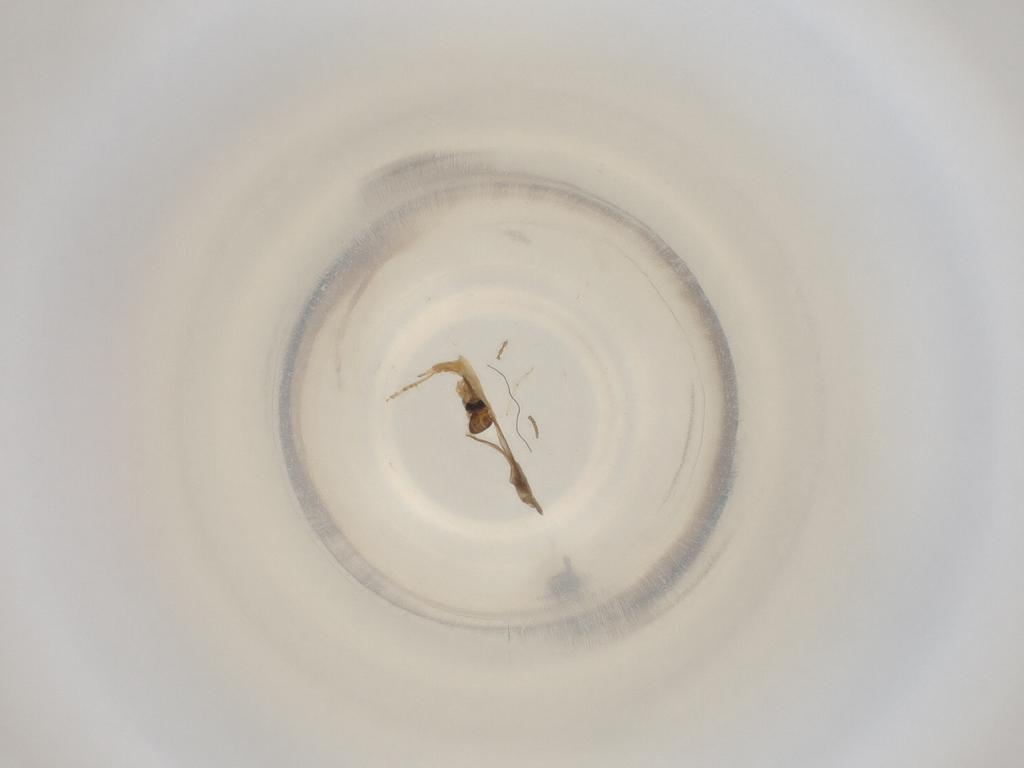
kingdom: Animalia
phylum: Arthropoda
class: Insecta
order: Diptera
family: Cecidomyiidae
